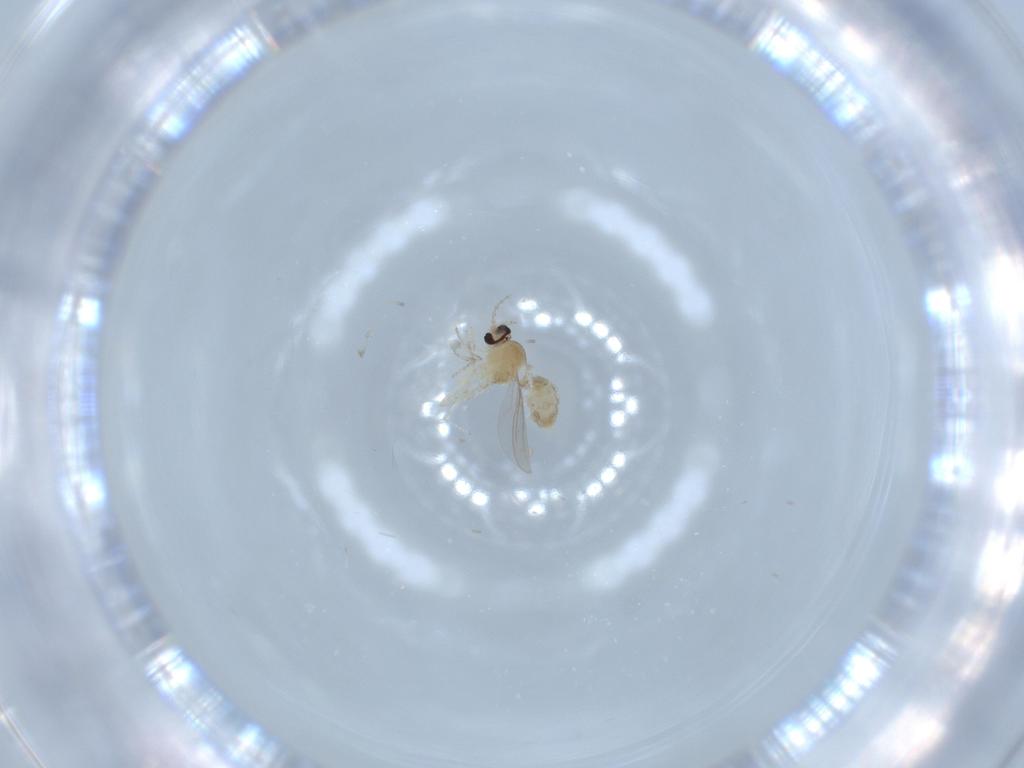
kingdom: Animalia
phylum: Arthropoda
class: Insecta
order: Diptera
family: Cecidomyiidae
